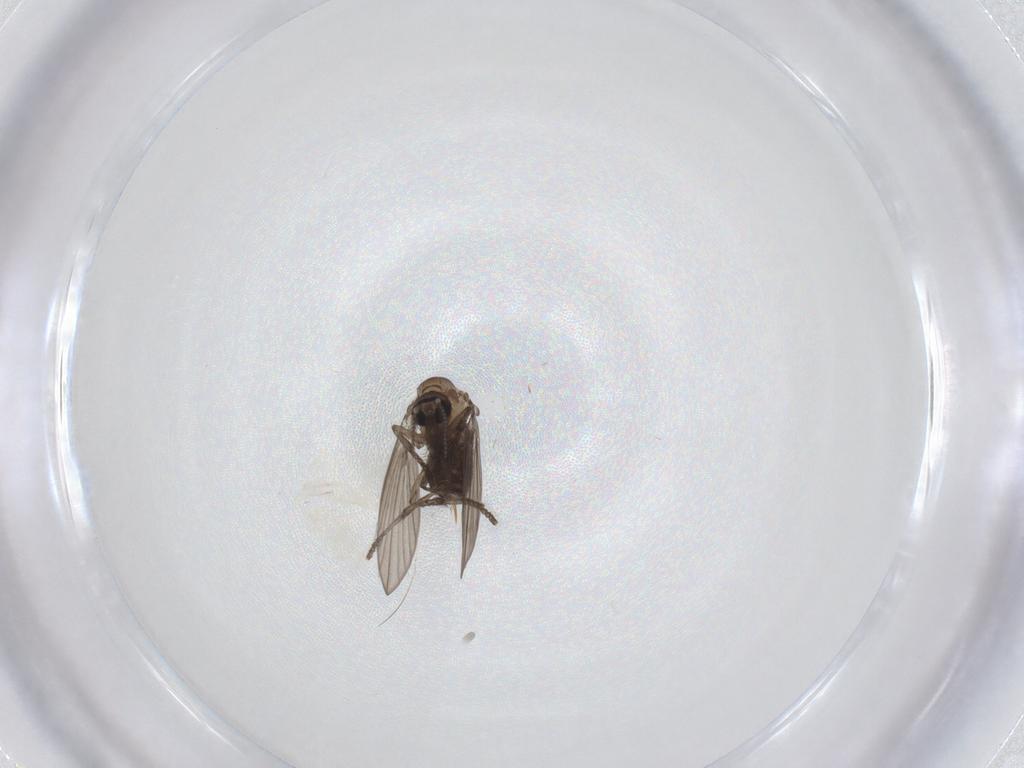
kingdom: Animalia
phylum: Arthropoda
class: Insecta
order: Diptera
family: Psychodidae
